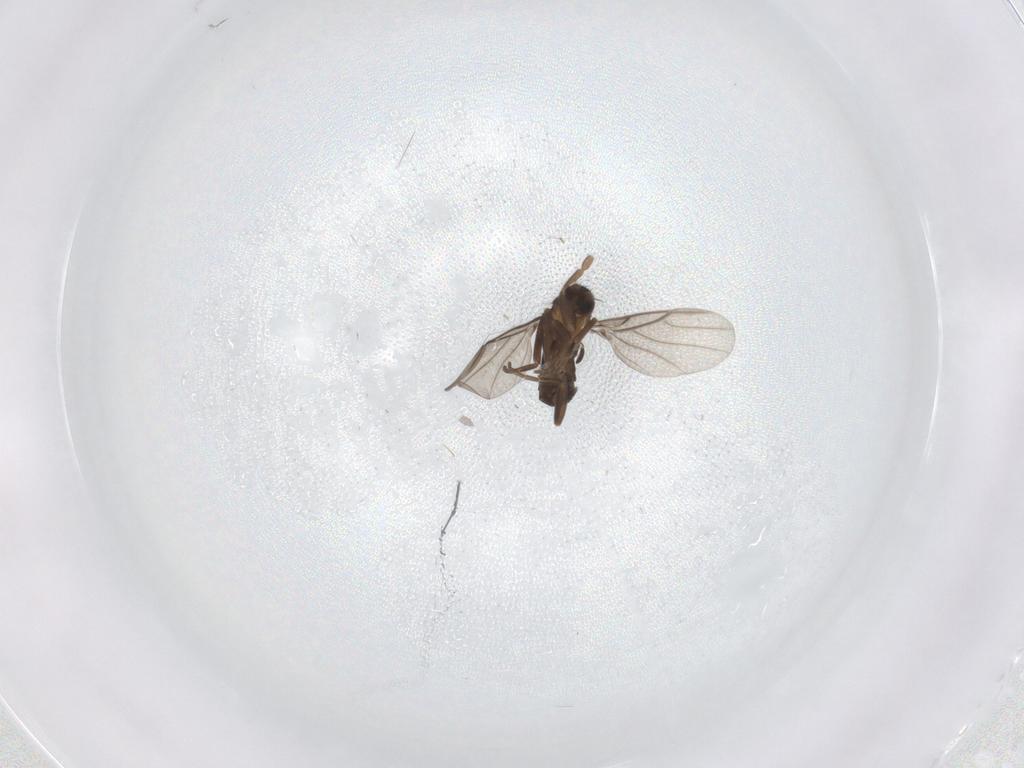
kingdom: Animalia
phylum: Arthropoda
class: Insecta
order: Diptera
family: Phoridae
